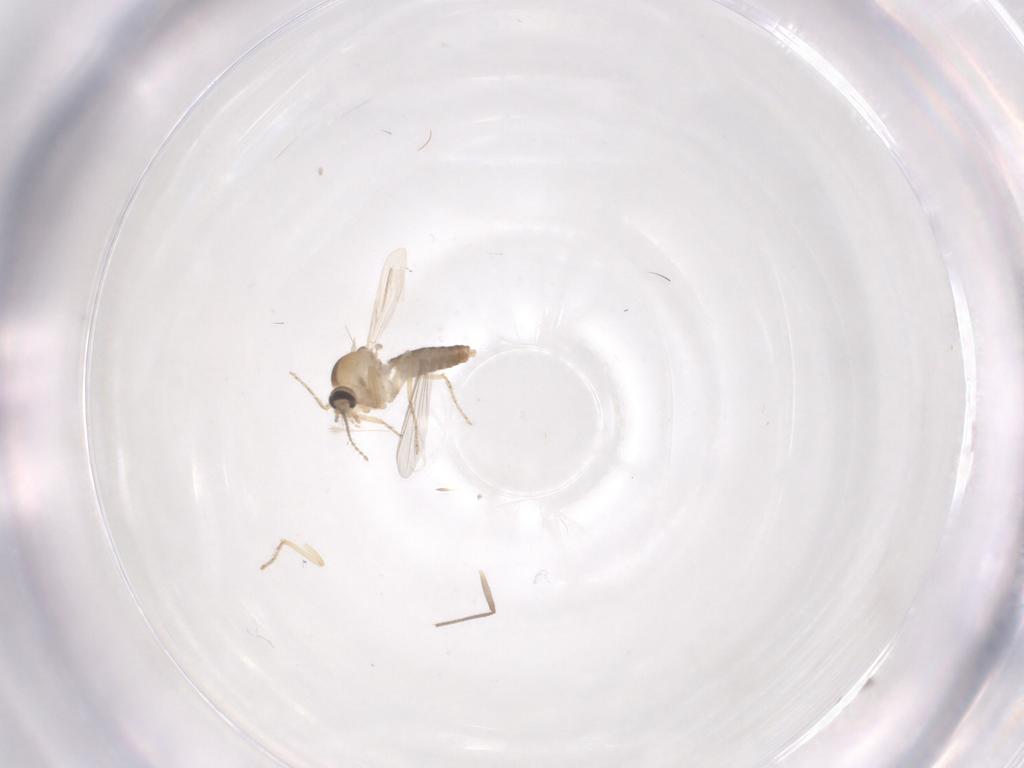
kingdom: Animalia
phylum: Arthropoda
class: Insecta
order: Diptera
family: Ceratopogonidae
